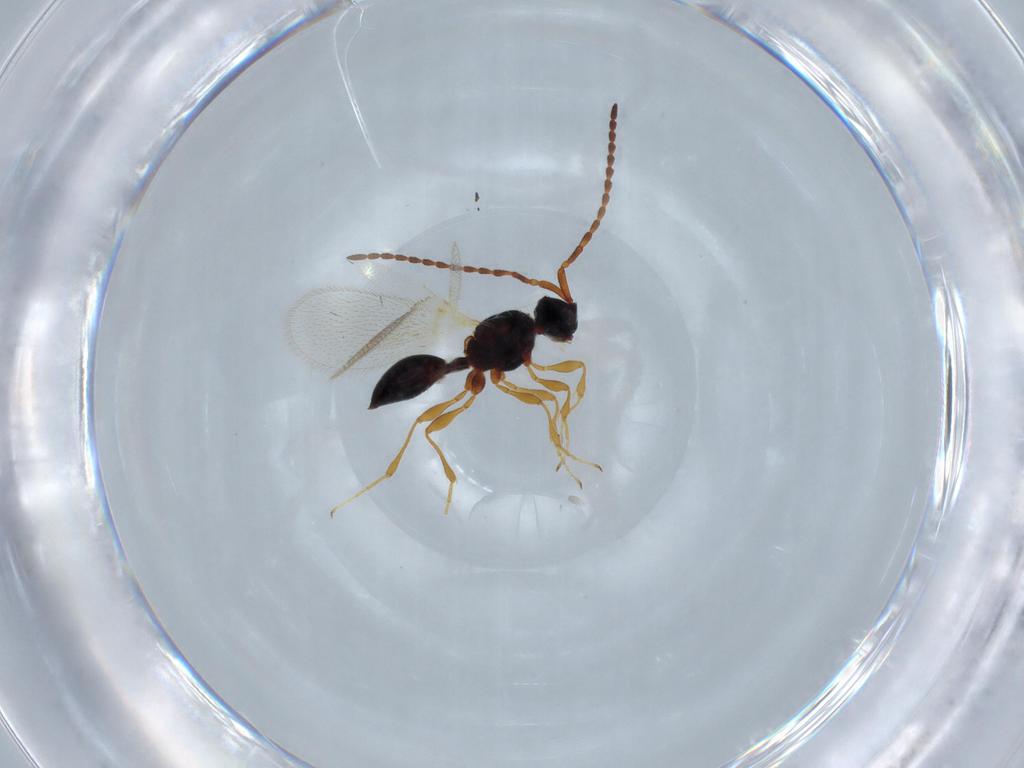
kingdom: Animalia
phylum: Arthropoda
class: Insecta
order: Hymenoptera
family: Diapriidae
